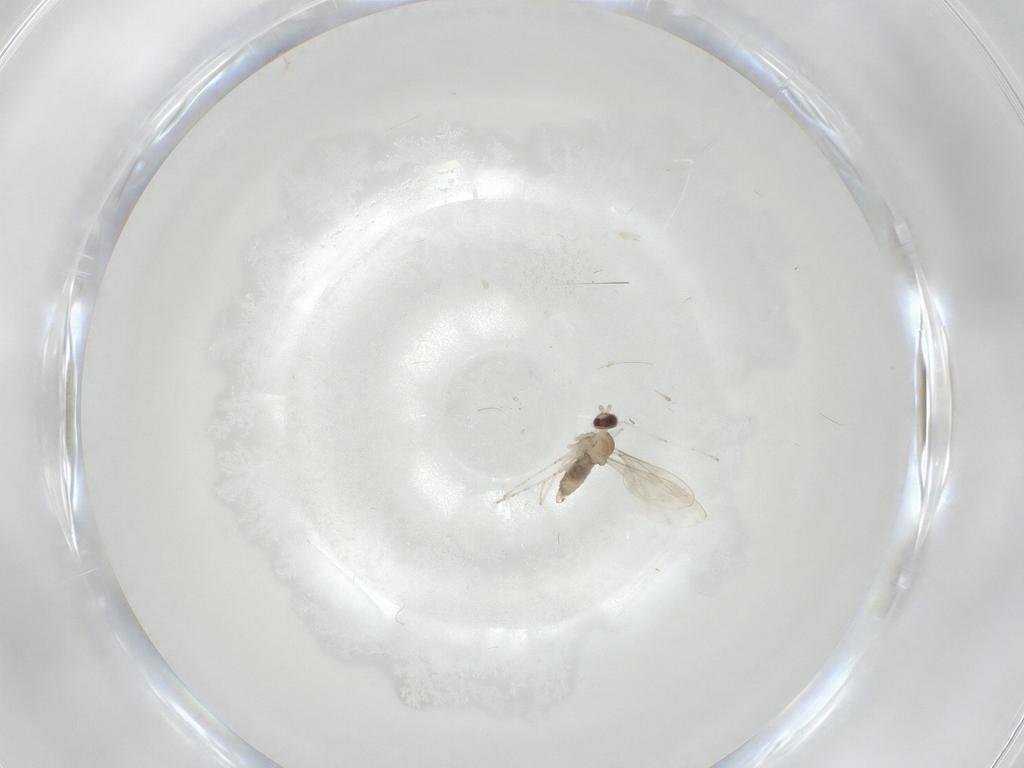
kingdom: Animalia
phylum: Arthropoda
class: Insecta
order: Diptera
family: Cecidomyiidae
